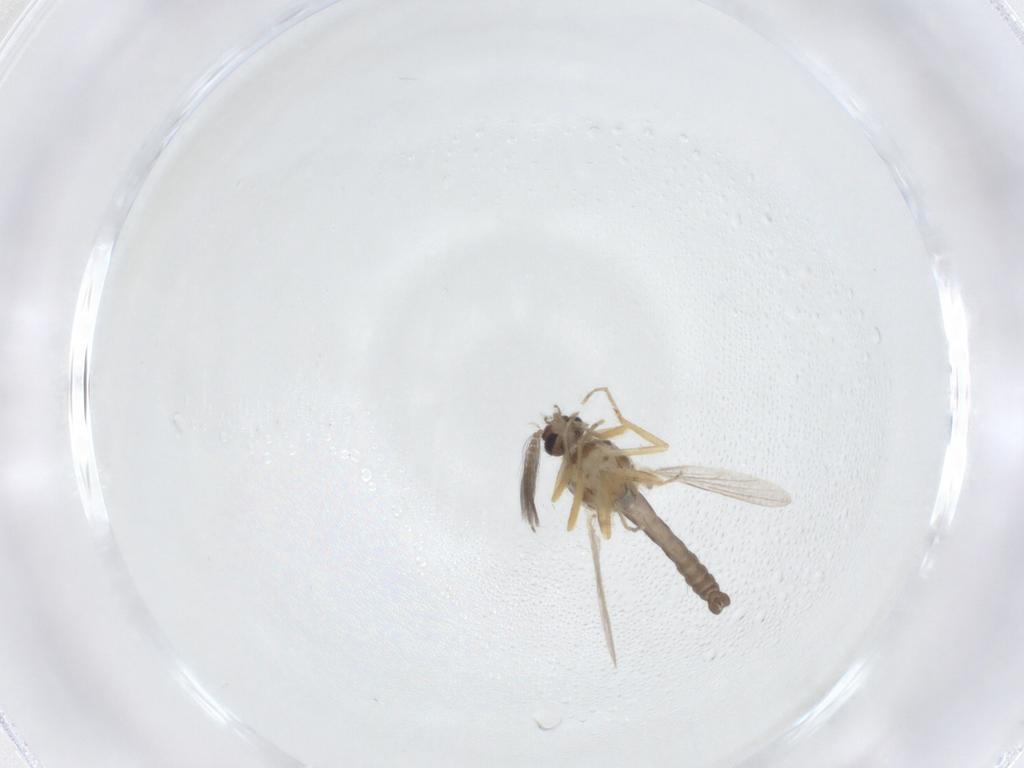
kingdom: Animalia
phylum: Arthropoda
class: Insecta
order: Diptera
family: Ceratopogonidae
